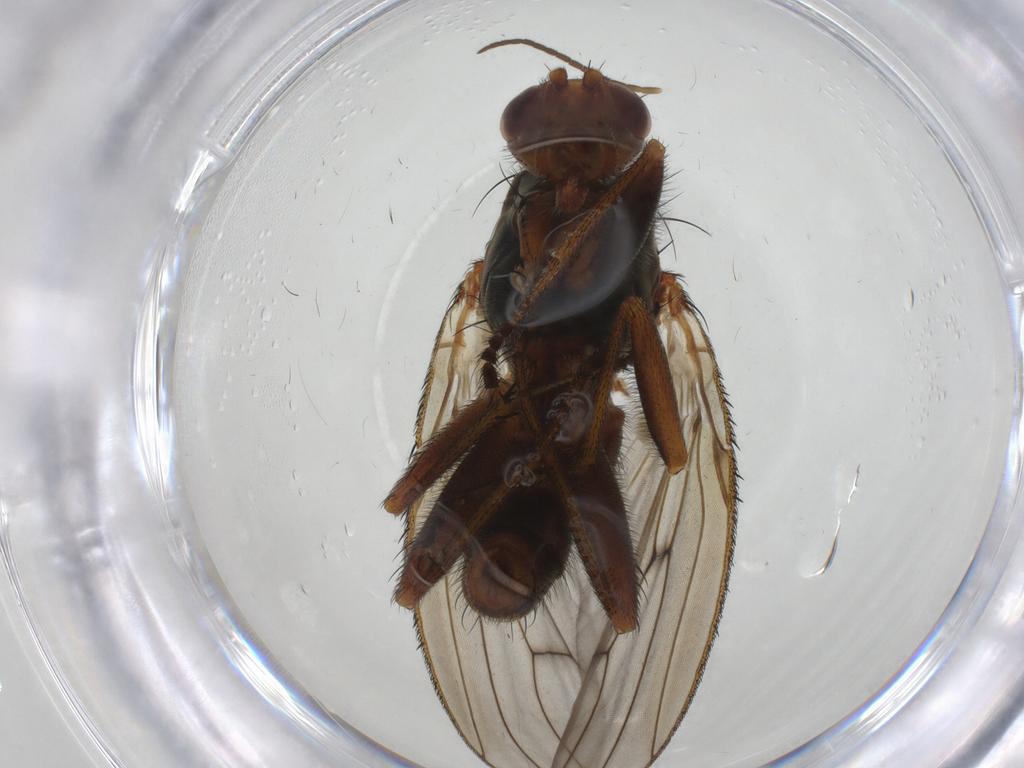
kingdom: Animalia
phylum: Arthropoda
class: Insecta
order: Diptera
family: Heleomyzidae
